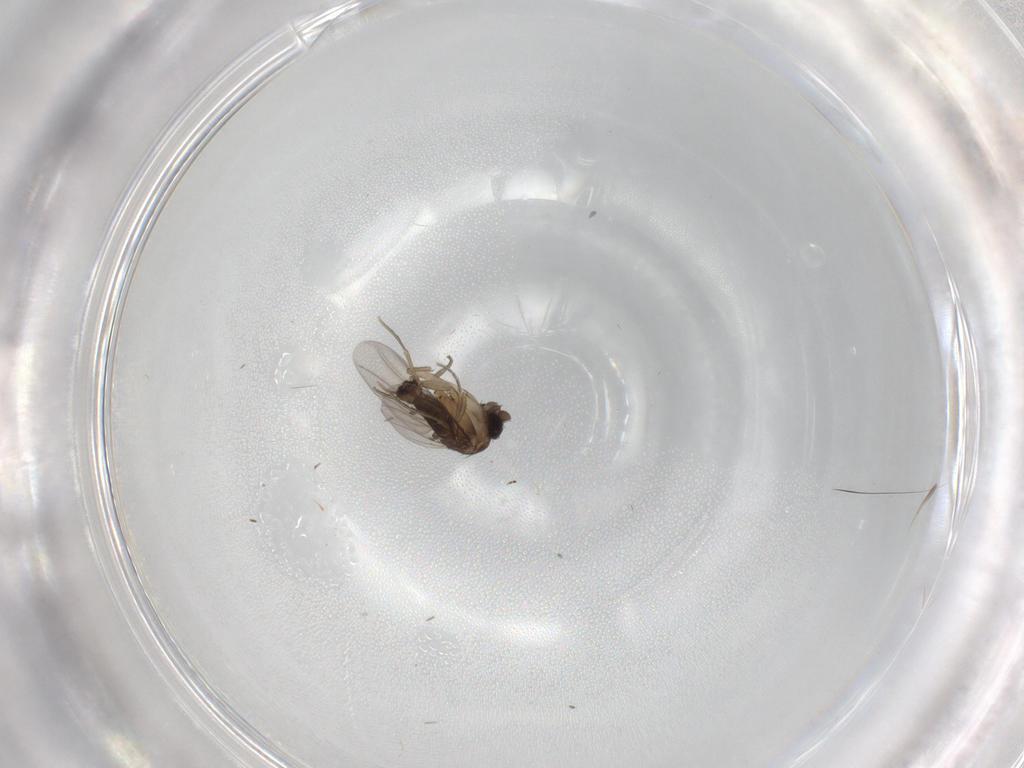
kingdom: Animalia
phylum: Arthropoda
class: Insecta
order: Diptera
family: Phoridae
